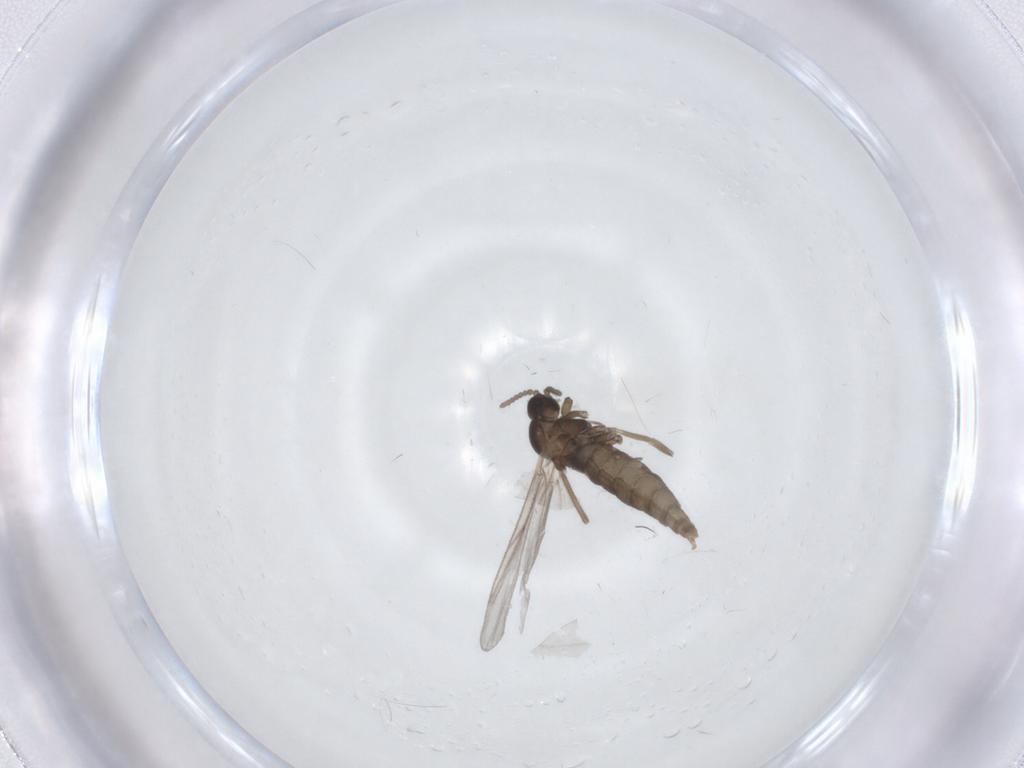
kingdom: Animalia
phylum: Arthropoda
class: Insecta
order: Diptera
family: Cecidomyiidae
